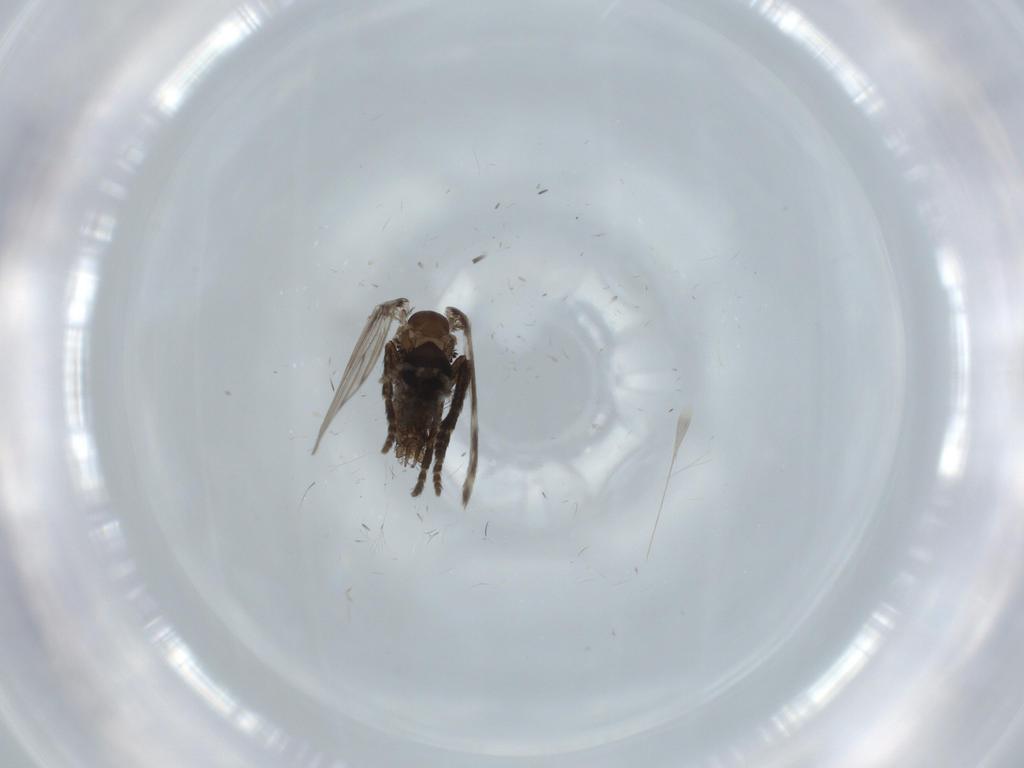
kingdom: Animalia
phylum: Arthropoda
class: Insecta
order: Diptera
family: Psychodidae
